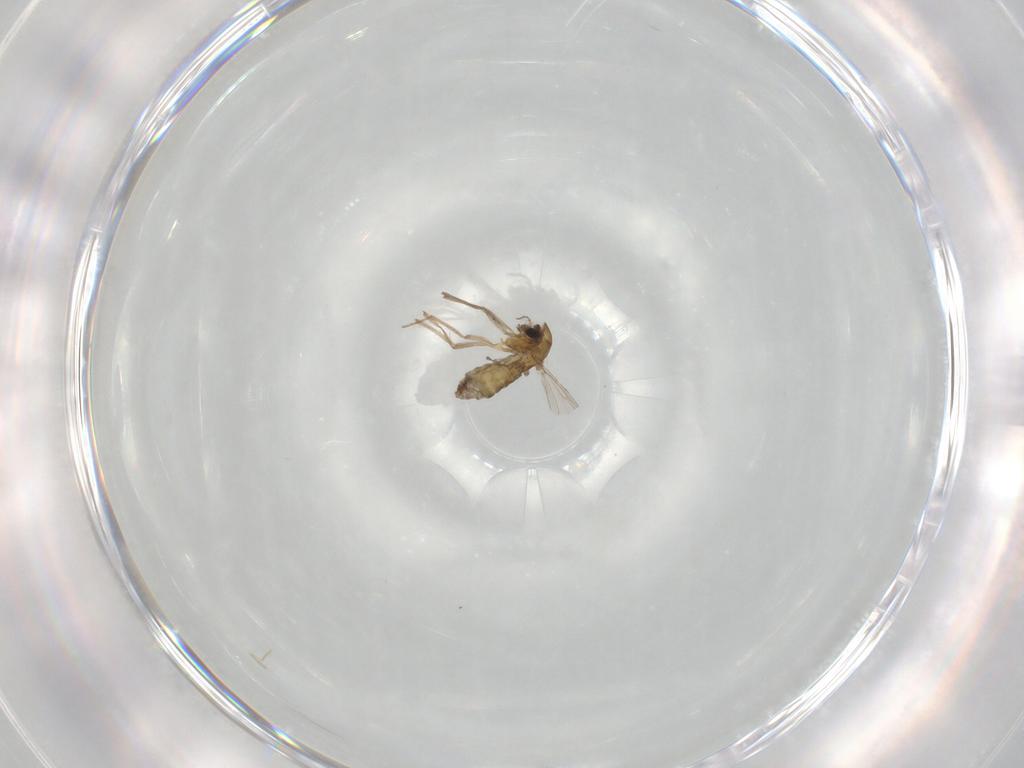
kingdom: Animalia
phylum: Arthropoda
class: Insecta
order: Diptera
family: Chironomidae
